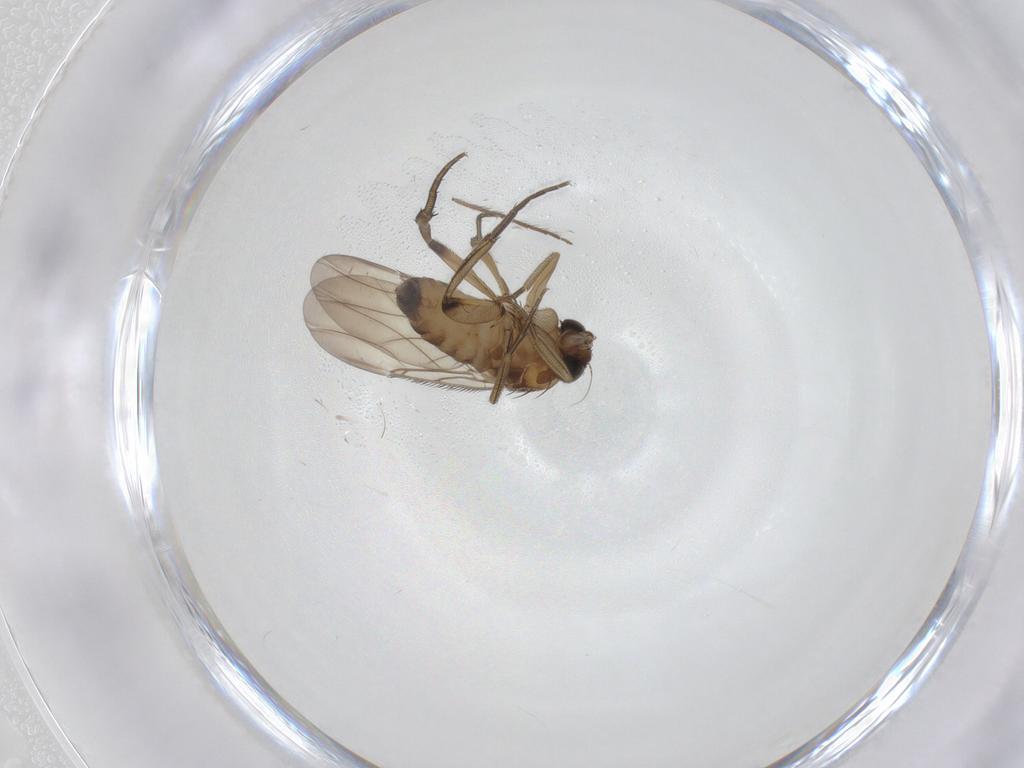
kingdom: Animalia
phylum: Arthropoda
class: Insecta
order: Diptera
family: Phoridae
